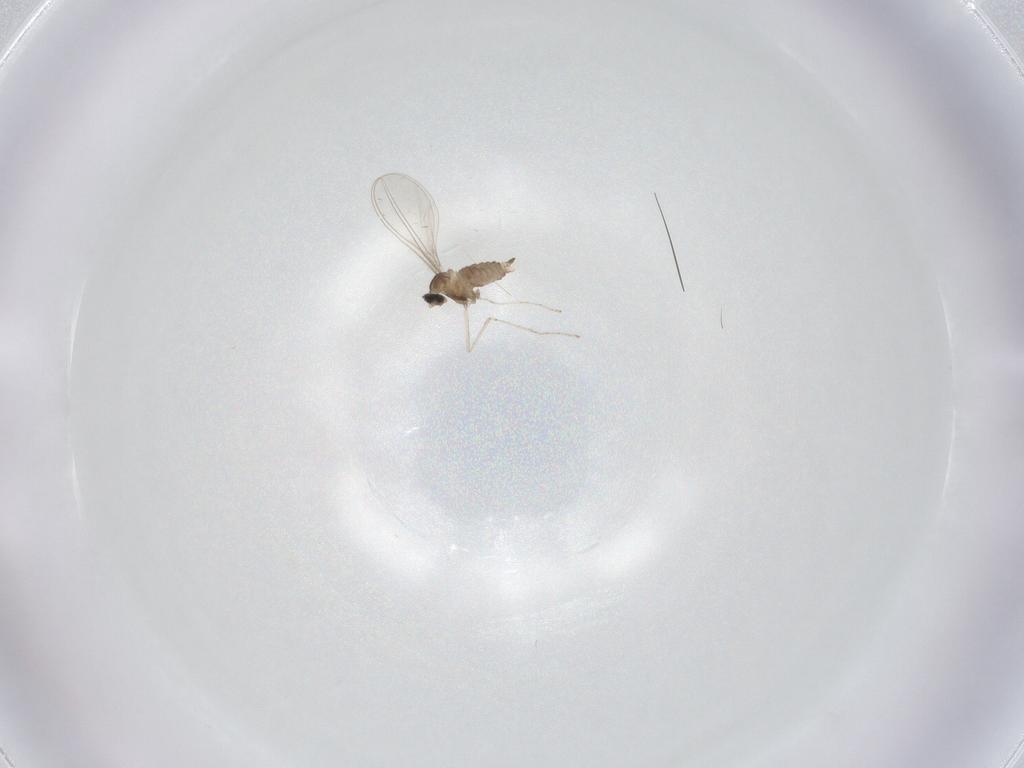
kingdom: Animalia
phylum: Arthropoda
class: Insecta
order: Diptera
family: Chironomidae
